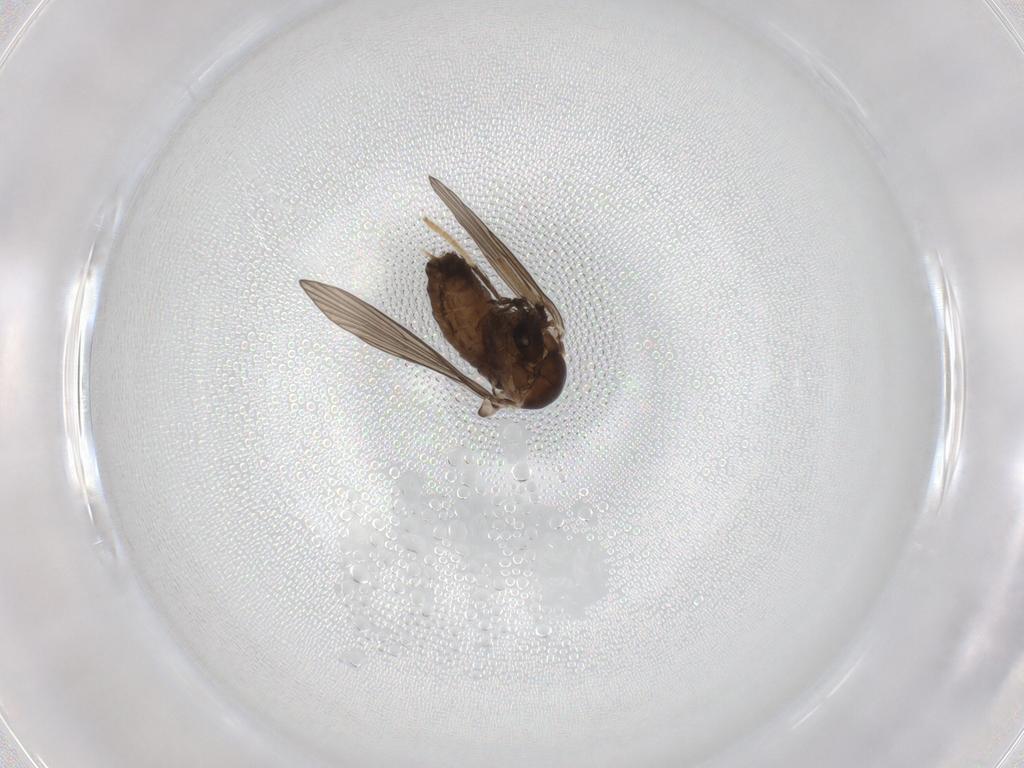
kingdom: Animalia
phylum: Arthropoda
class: Insecta
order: Diptera
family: Psychodidae
